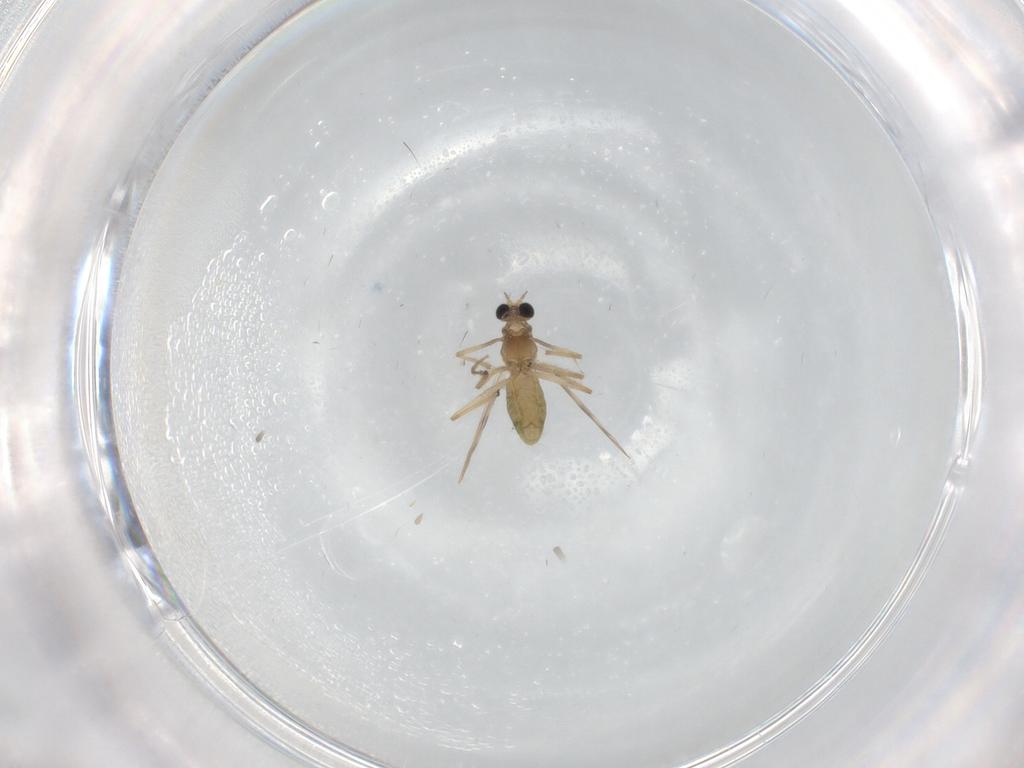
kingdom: Animalia
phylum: Arthropoda
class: Insecta
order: Diptera
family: Chironomidae
